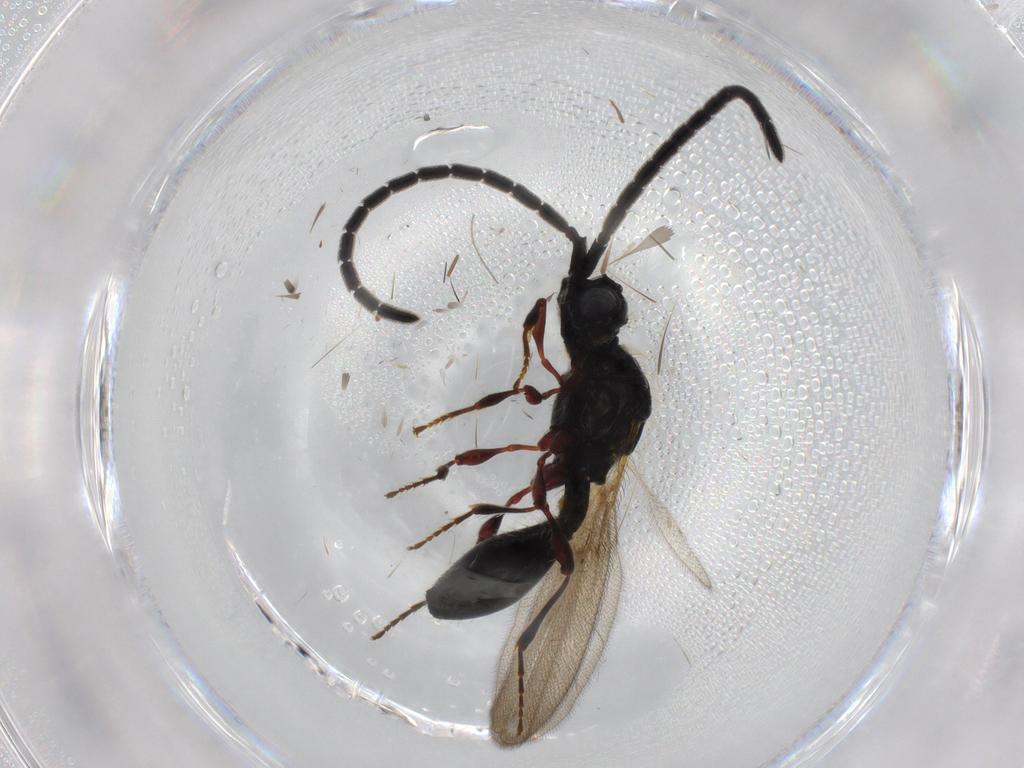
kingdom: Animalia
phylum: Arthropoda
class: Insecta
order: Hymenoptera
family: Diapriidae
